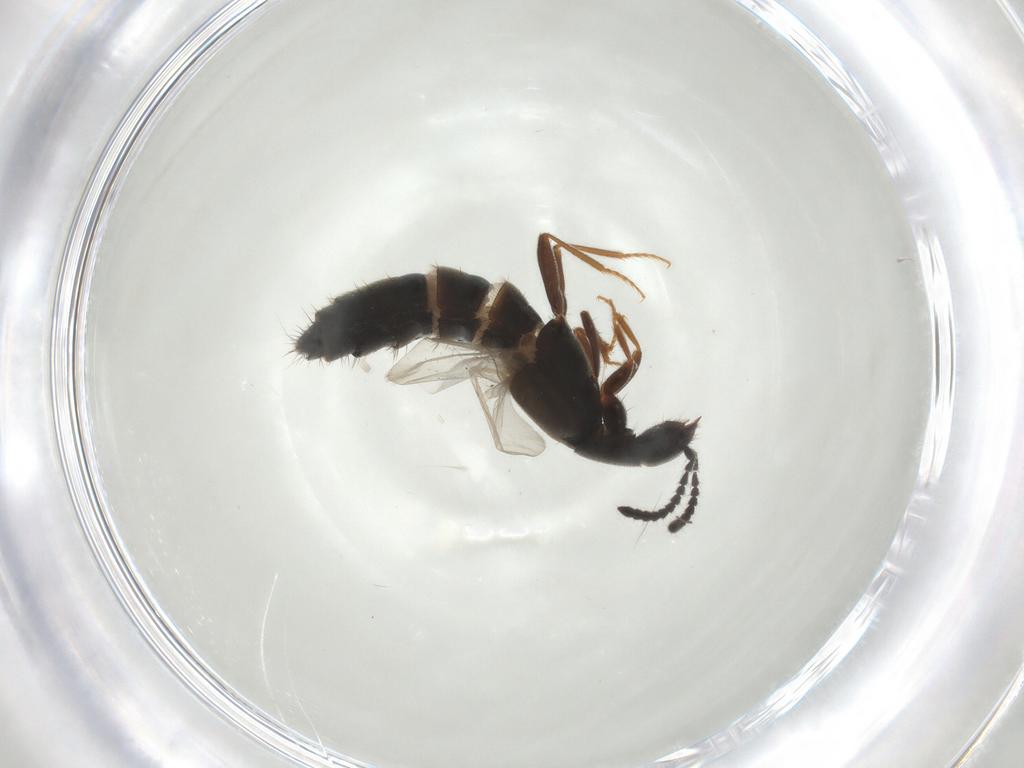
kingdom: Animalia
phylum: Arthropoda
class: Insecta
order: Coleoptera
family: Staphylinidae
